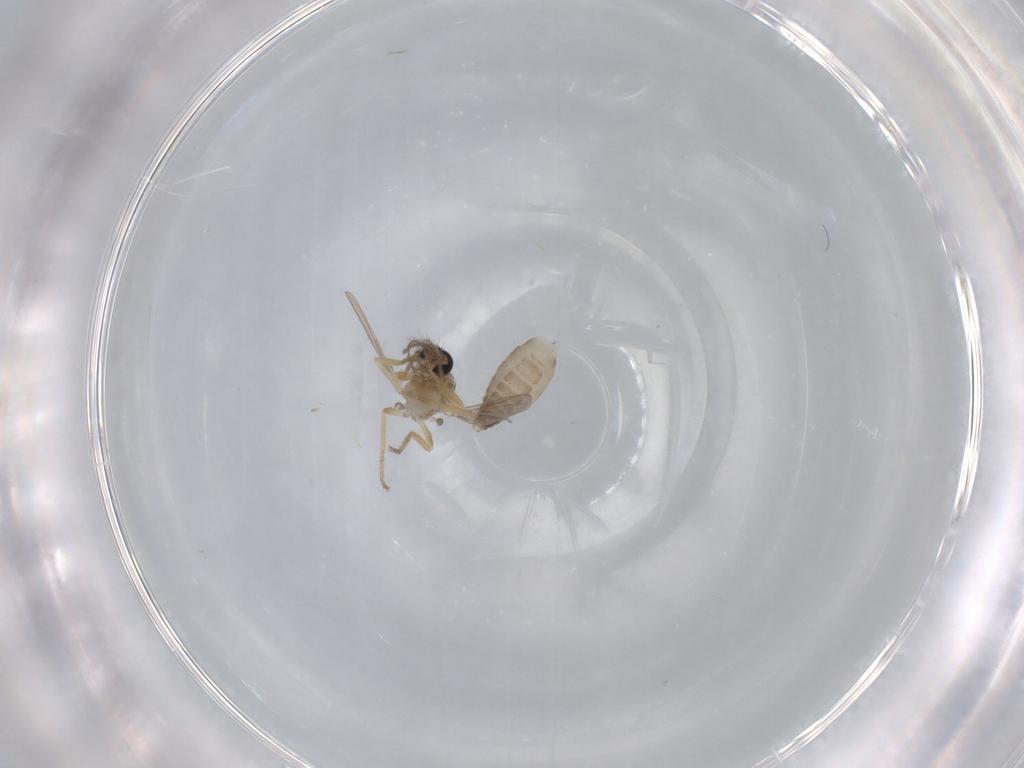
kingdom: Animalia
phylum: Arthropoda
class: Insecta
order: Diptera
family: Ceratopogonidae
